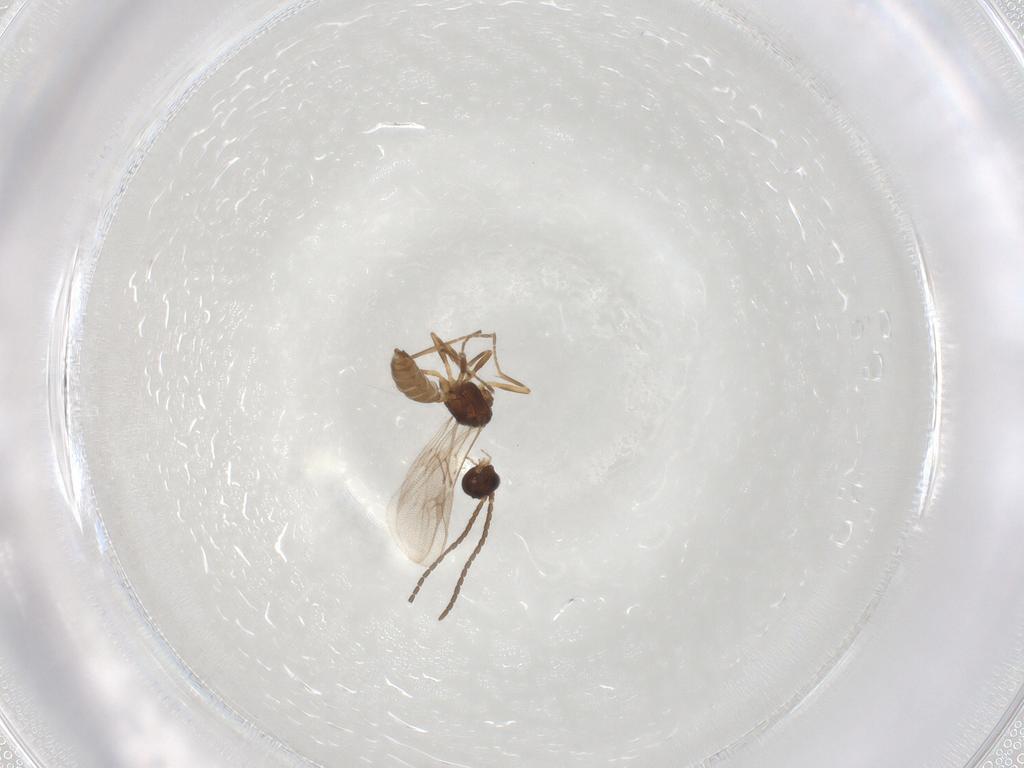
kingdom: Animalia
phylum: Arthropoda
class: Insecta
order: Hymenoptera
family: Braconidae
